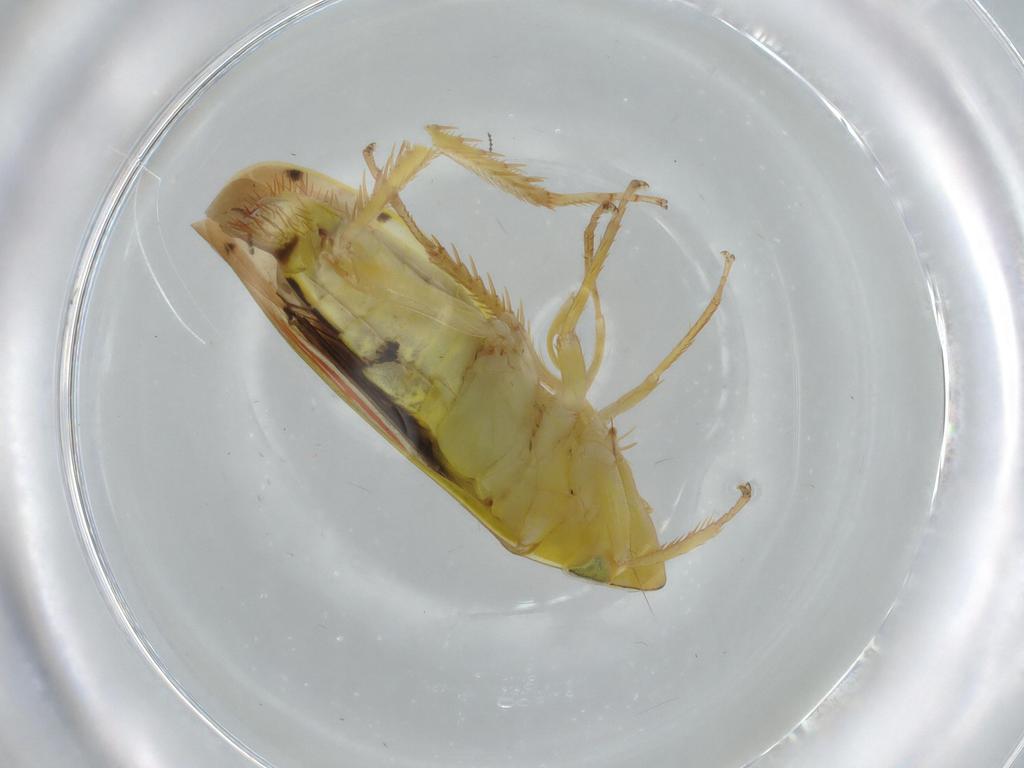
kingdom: Animalia
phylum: Arthropoda
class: Insecta
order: Hemiptera
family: Cicadellidae
